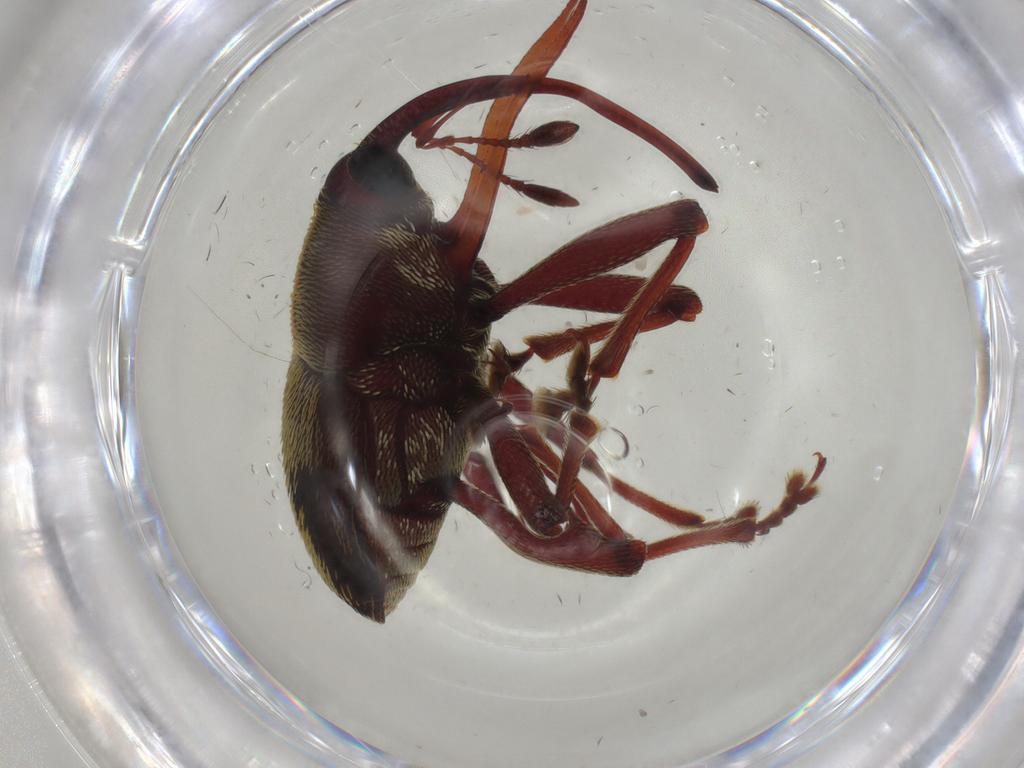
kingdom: Animalia
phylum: Arthropoda
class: Insecta
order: Coleoptera
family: Curculionidae
